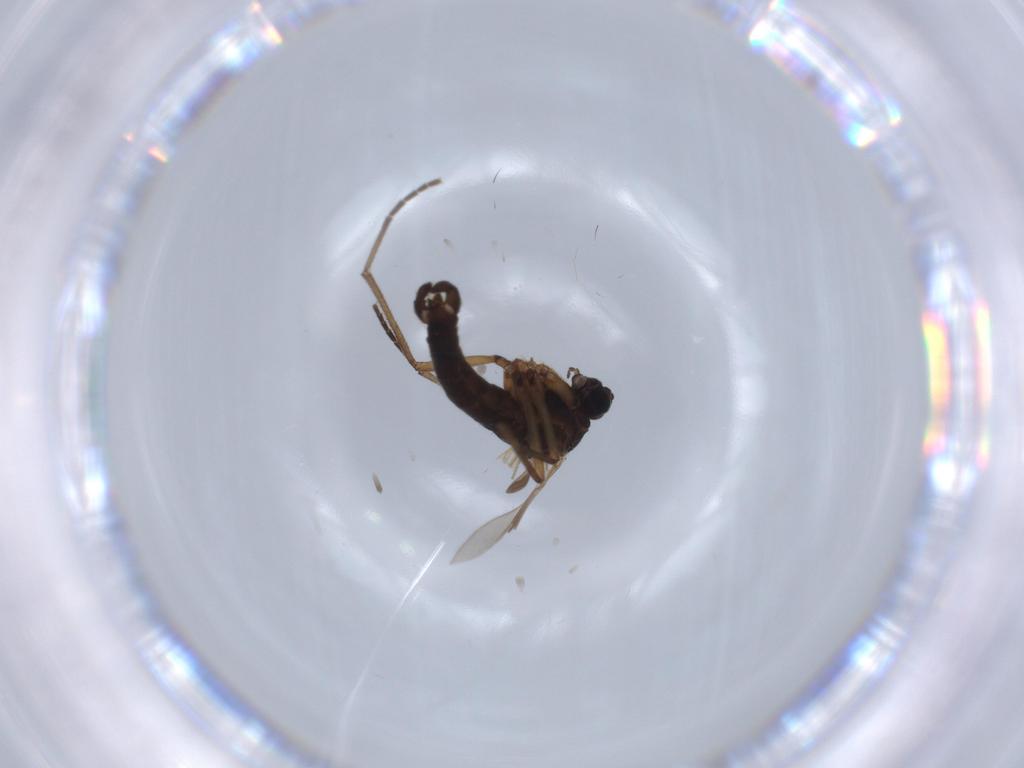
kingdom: Animalia
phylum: Arthropoda
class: Insecta
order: Diptera
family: Sciaridae
